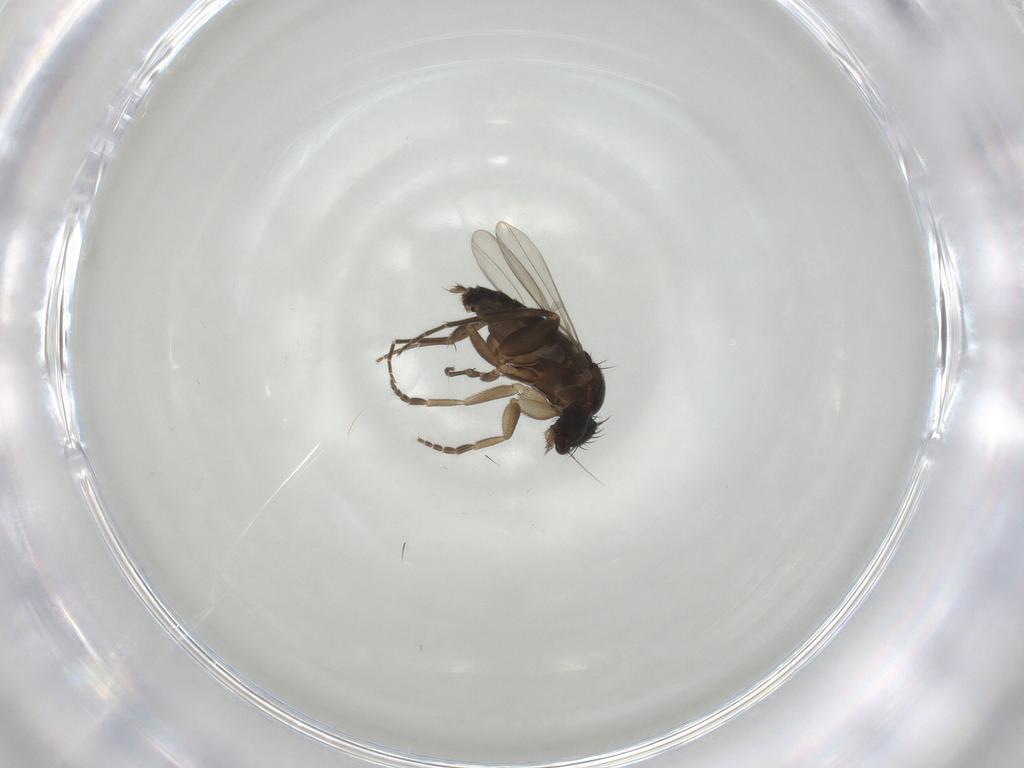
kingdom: Animalia
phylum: Arthropoda
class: Insecta
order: Diptera
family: Phoridae
